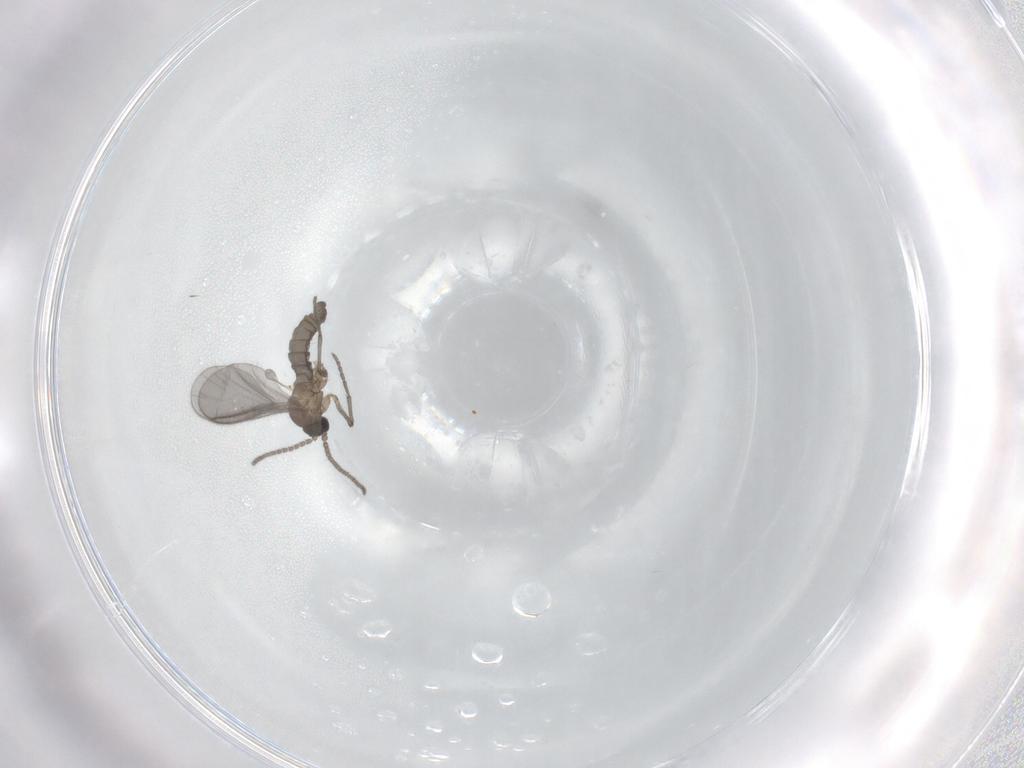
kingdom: Animalia
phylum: Arthropoda
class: Insecta
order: Diptera
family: Sciaridae
